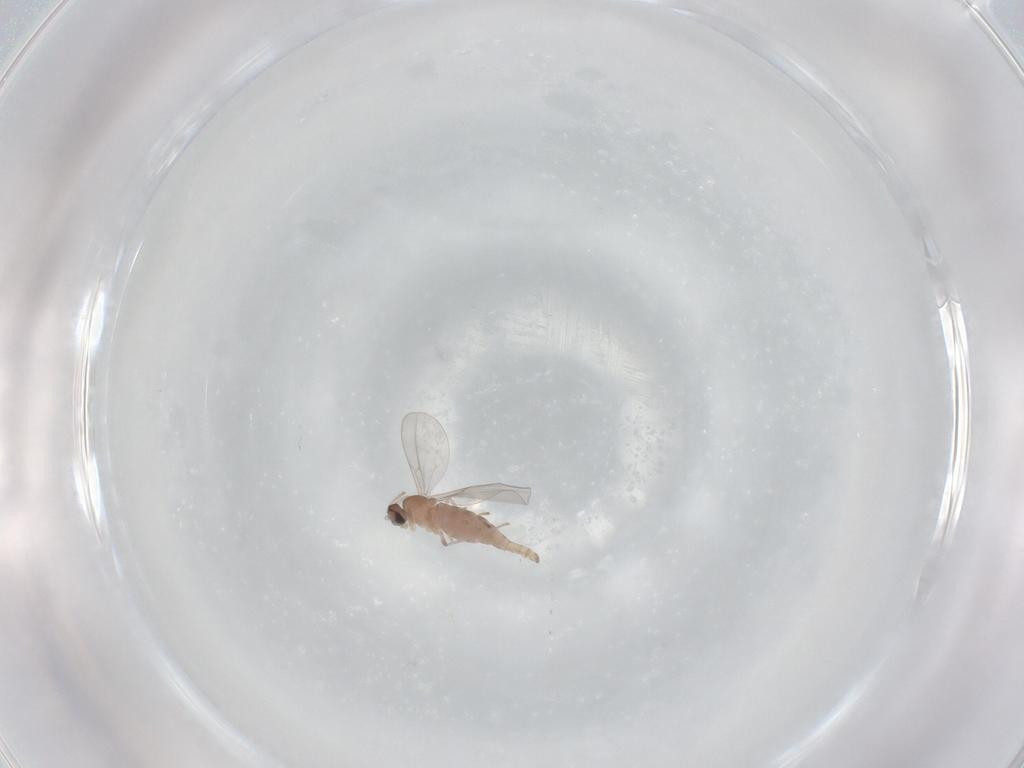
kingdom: Animalia
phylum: Arthropoda
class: Insecta
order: Diptera
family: Cecidomyiidae
